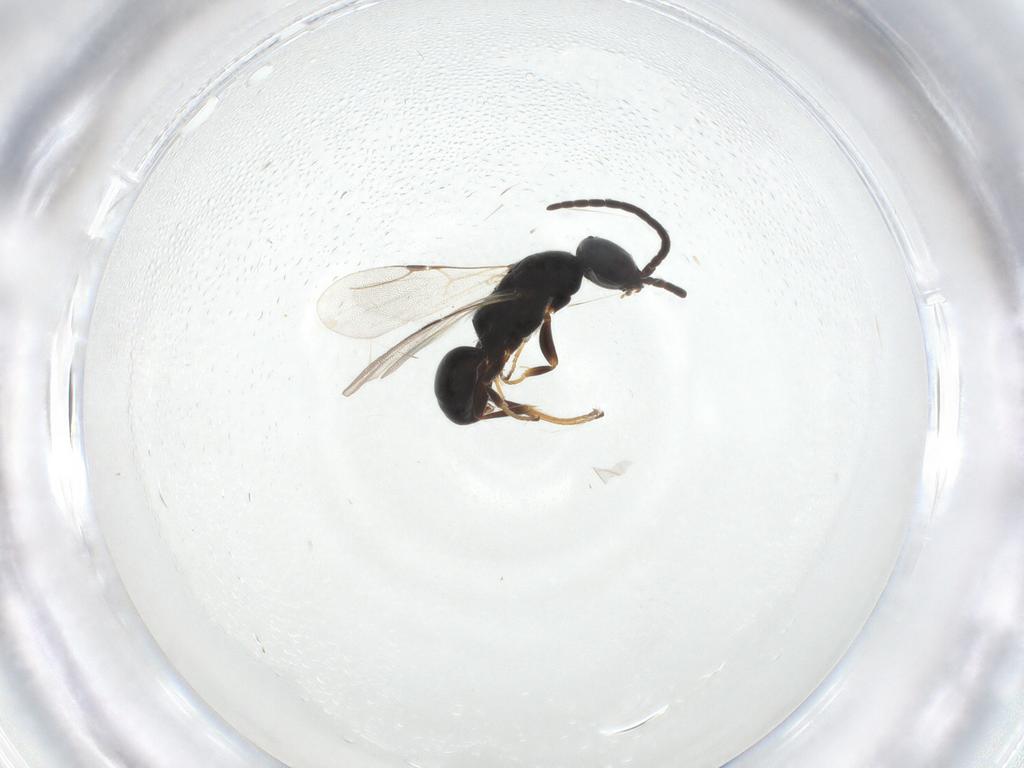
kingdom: Animalia
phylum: Arthropoda
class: Insecta
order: Hymenoptera
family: Bethylidae
